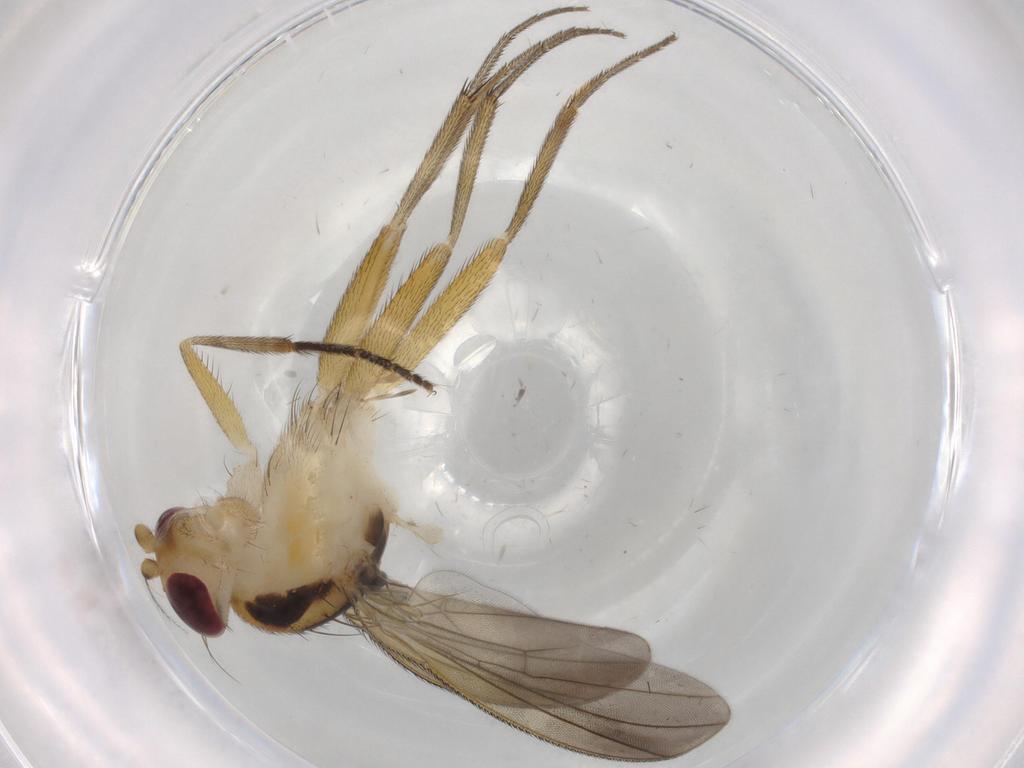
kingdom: Animalia
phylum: Arthropoda
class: Insecta
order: Diptera
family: Phoridae
